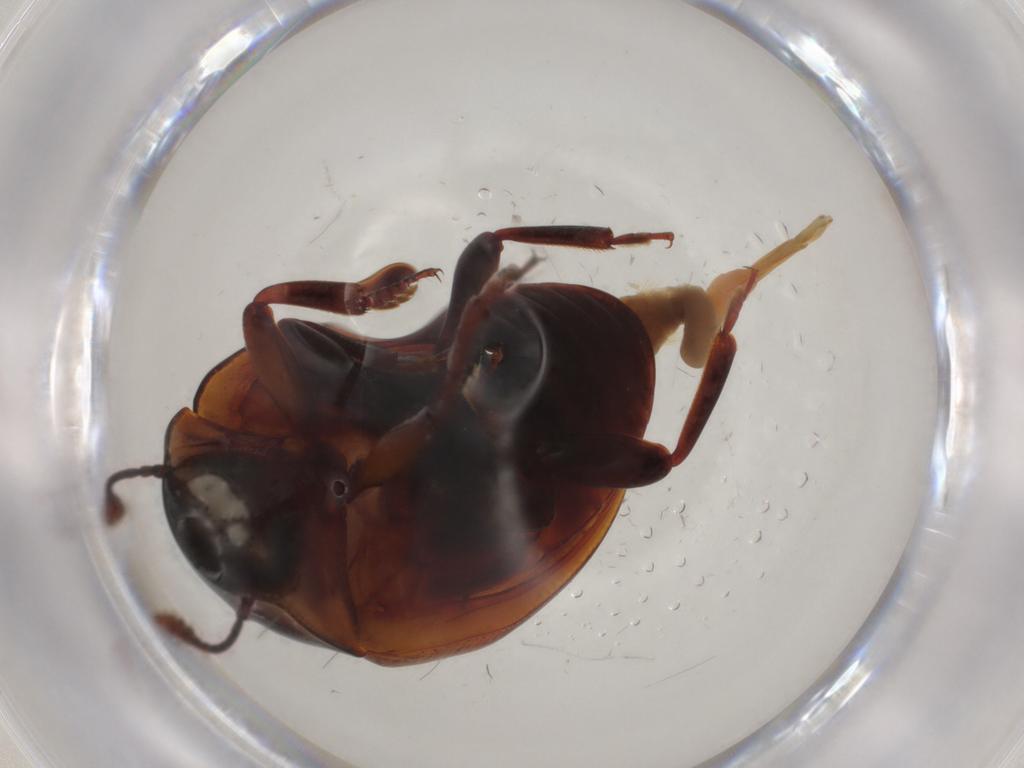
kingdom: Animalia
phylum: Arthropoda
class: Insecta
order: Coleoptera
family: Zopheridae
